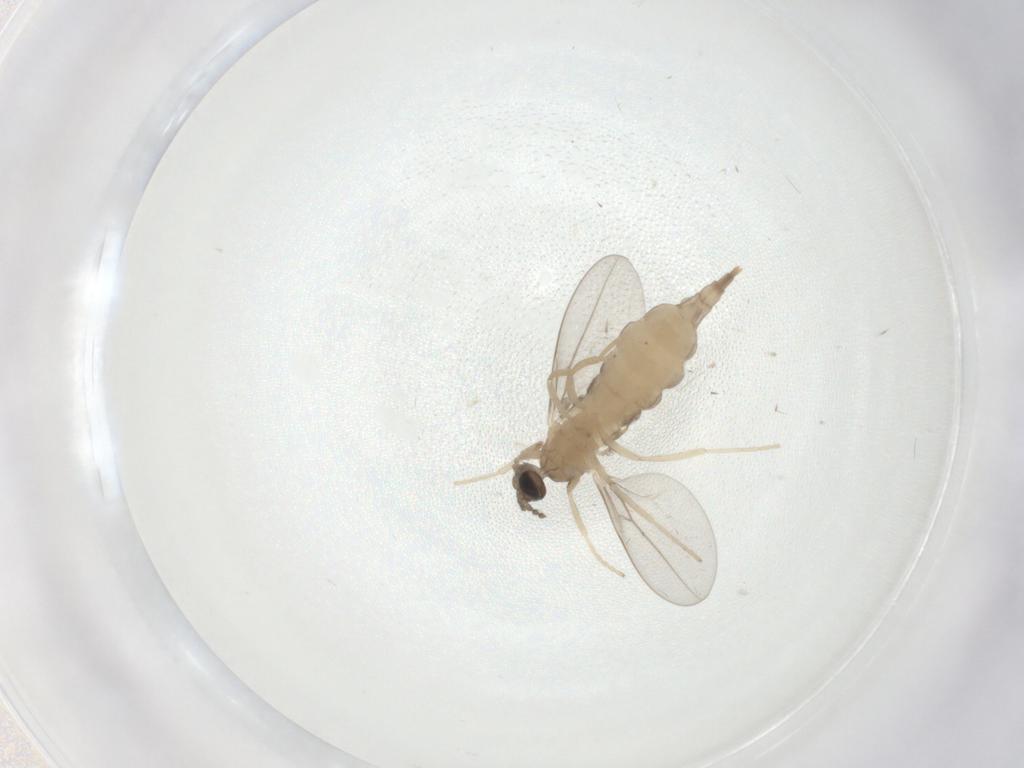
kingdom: Animalia
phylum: Arthropoda
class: Insecta
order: Diptera
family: Cecidomyiidae
